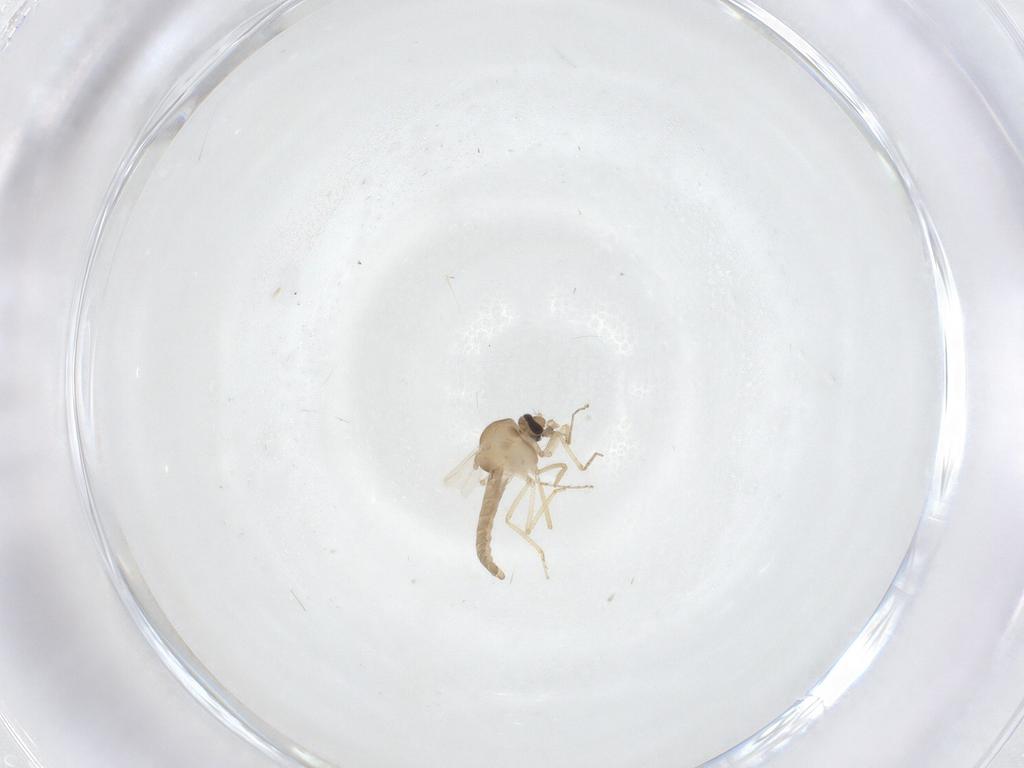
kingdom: Animalia
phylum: Arthropoda
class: Insecta
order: Diptera
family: Ceratopogonidae
